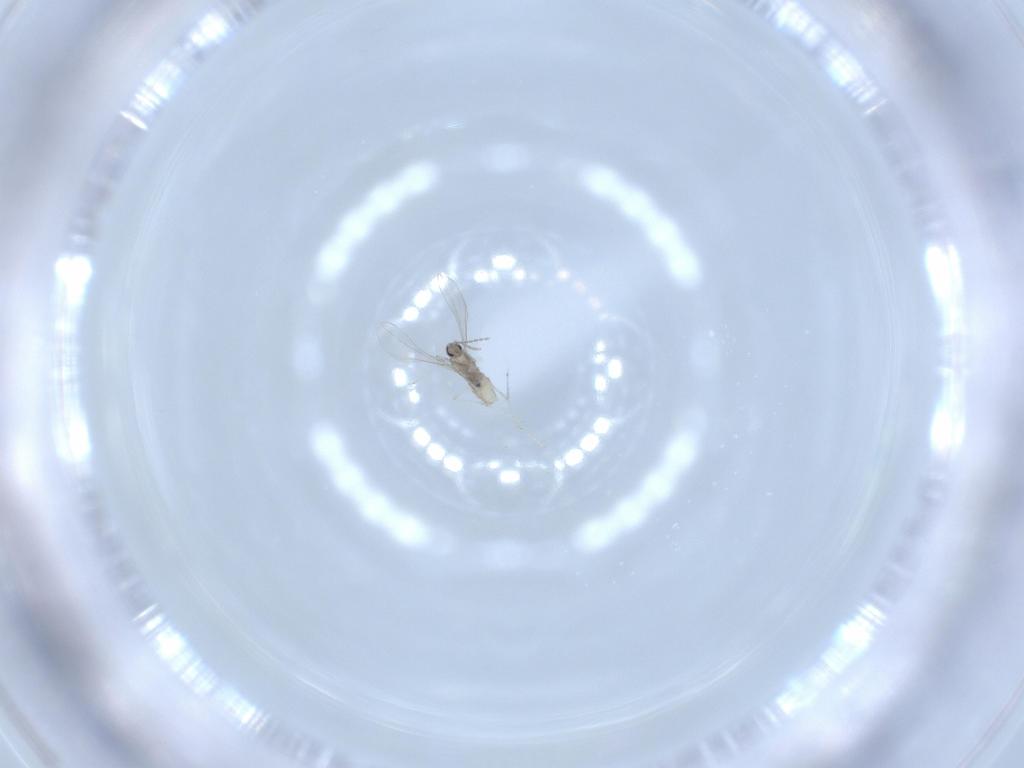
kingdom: Animalia
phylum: Arthropoda
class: Insecta
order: Diptera
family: Cecidomyiidae
